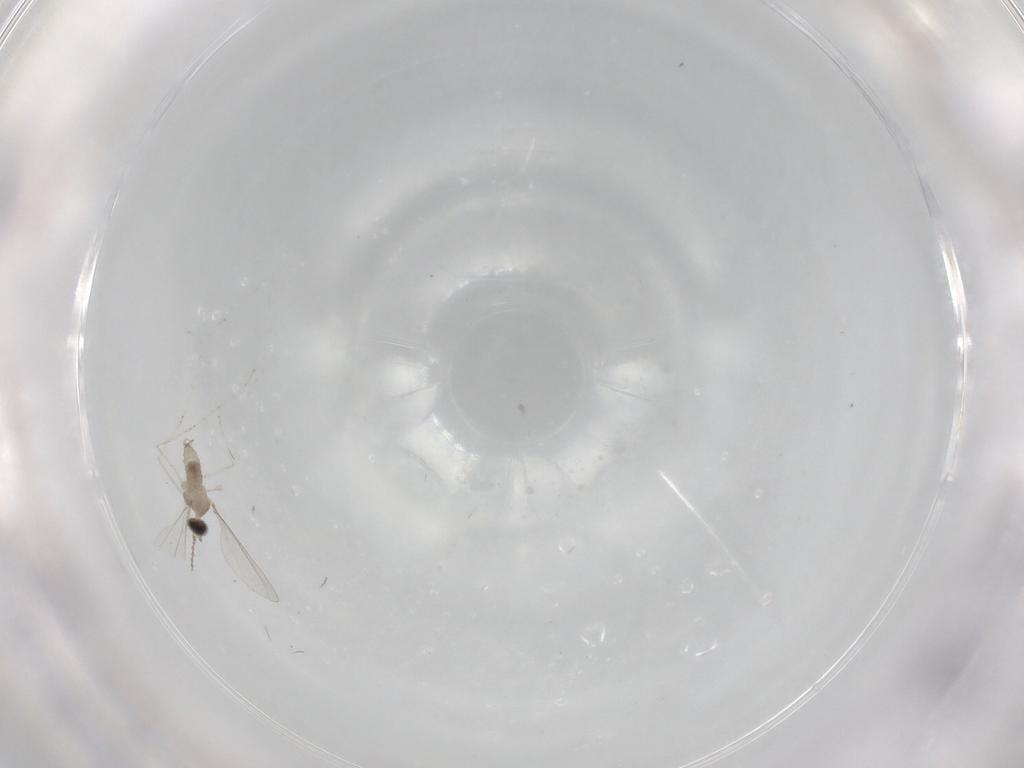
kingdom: Animalia
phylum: Arthropoda
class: Insecta
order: Diptera
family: Cecidomyiidae
